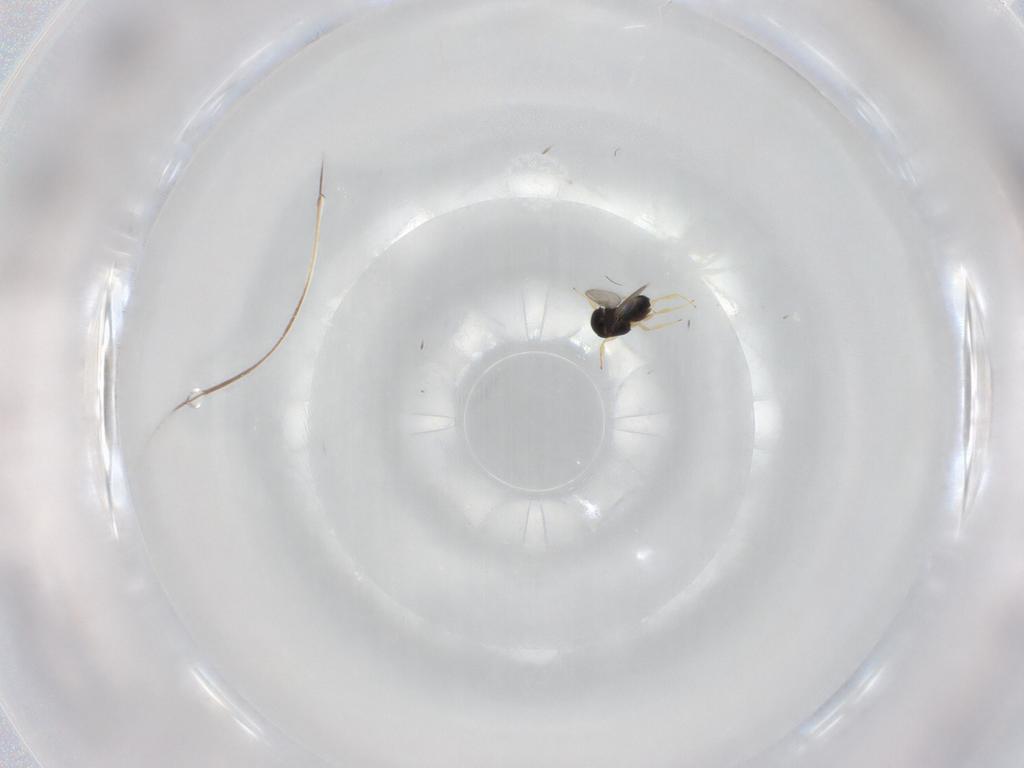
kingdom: Animalia
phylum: Arthropoda
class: Insecta
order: Hymenoptera
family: Scelionidae
